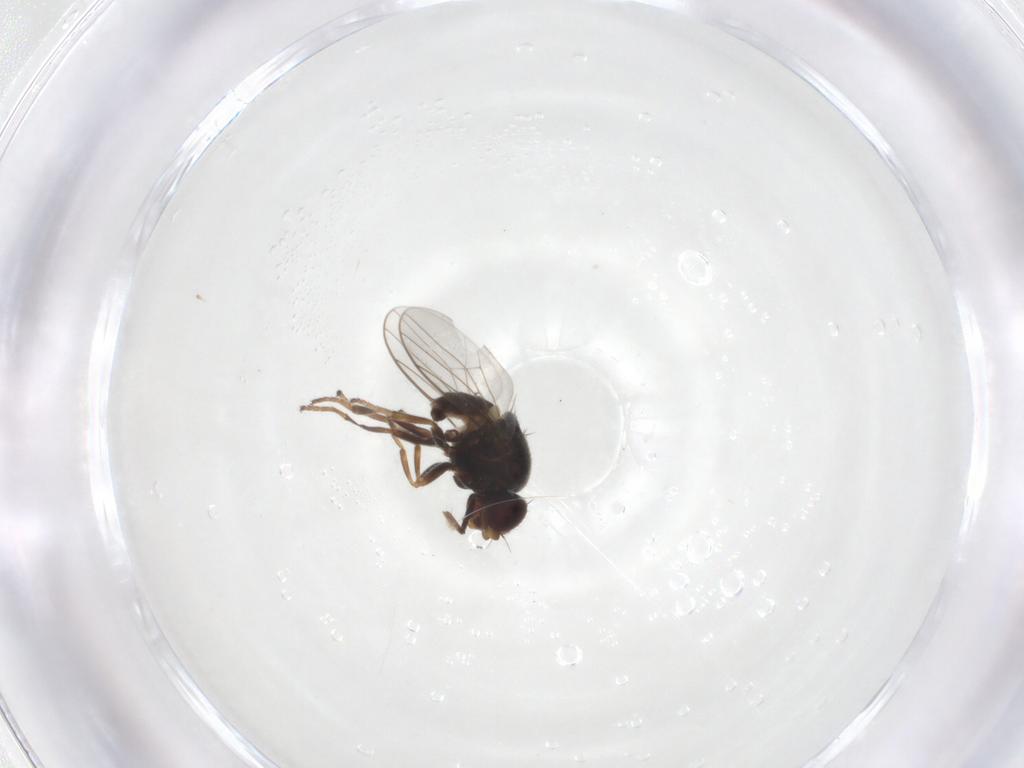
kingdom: Animalia
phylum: Arthropoda
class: Insecta
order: Diptera
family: Chloropidae
